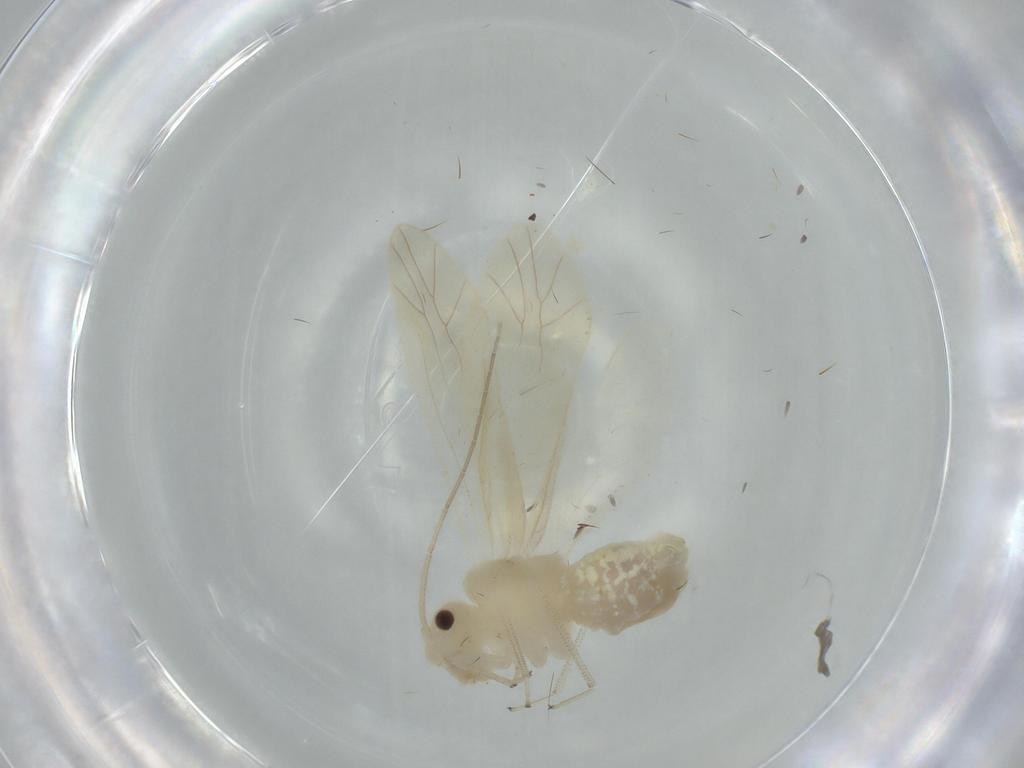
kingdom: Animalia
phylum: Arthropoda
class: Insecta
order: Psocodea
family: Caeciliusidae
